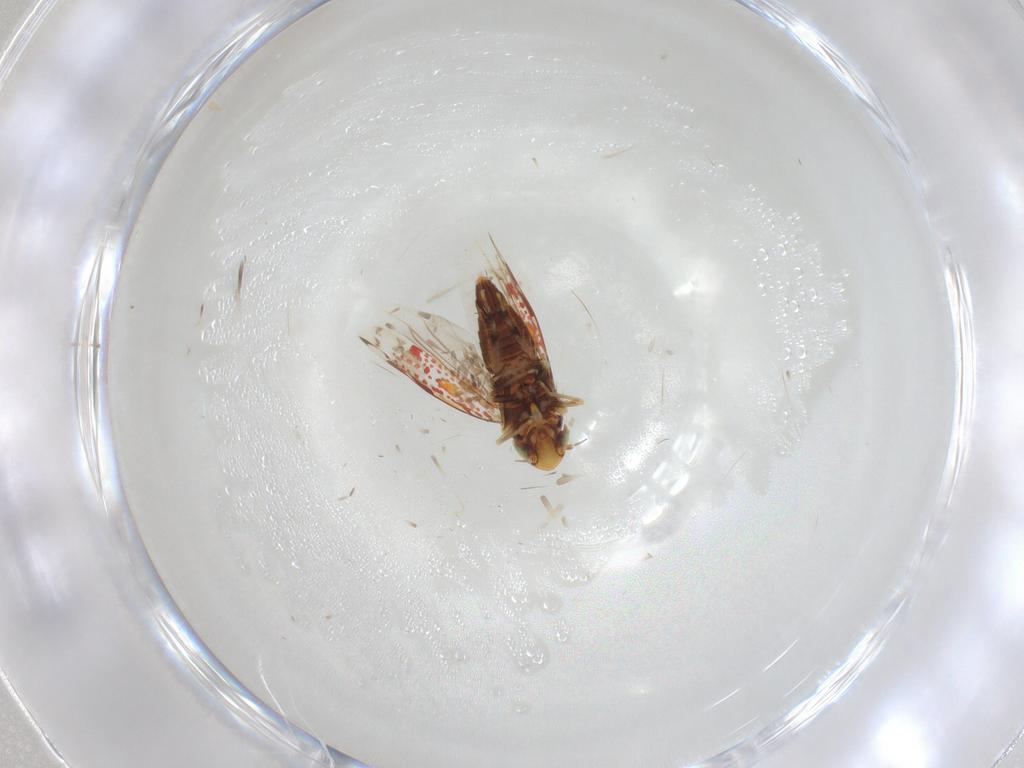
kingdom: Animalia
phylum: Arthropoda
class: Insecta
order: Hemiptera
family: Cicadellidae
